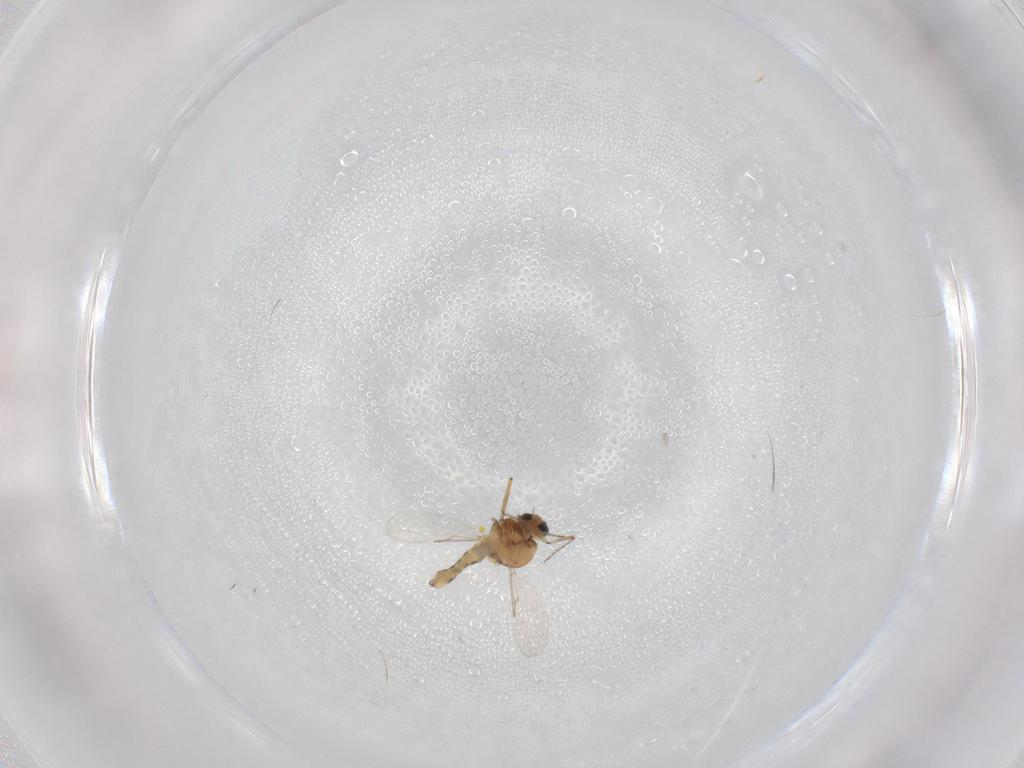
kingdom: Animalia
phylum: Arthropoda
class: Insecta
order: Diptera
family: Ceratopogonidae
